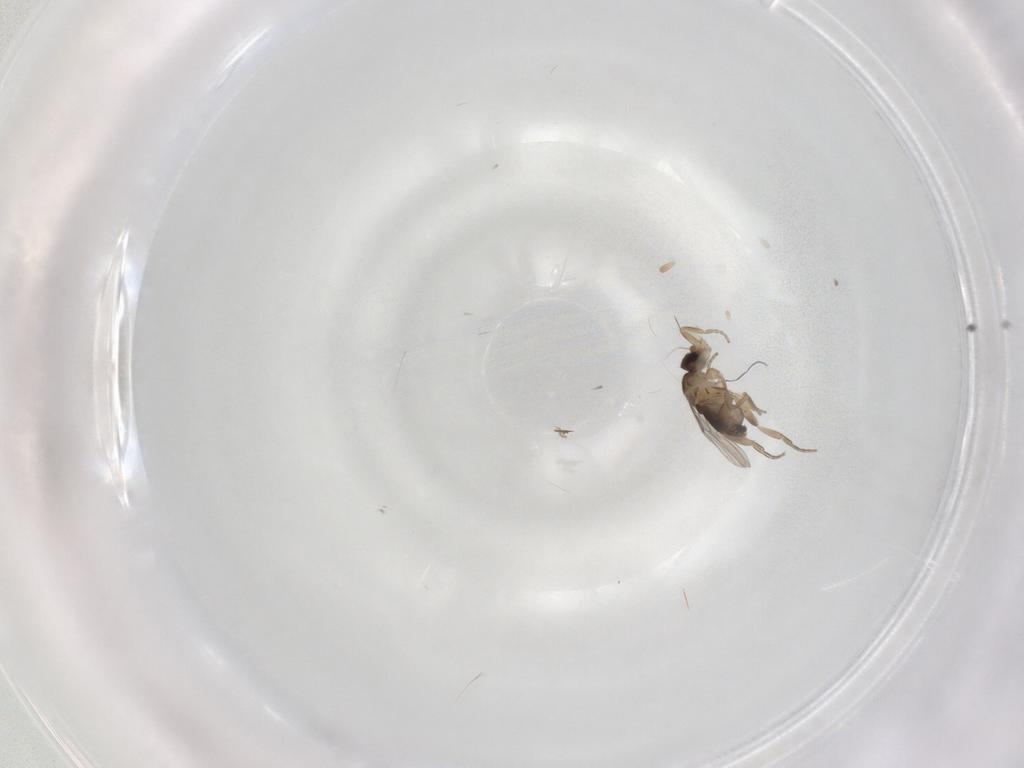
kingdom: Animalia
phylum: Arthropoda
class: Insecta
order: Diptera
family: Phoridae
